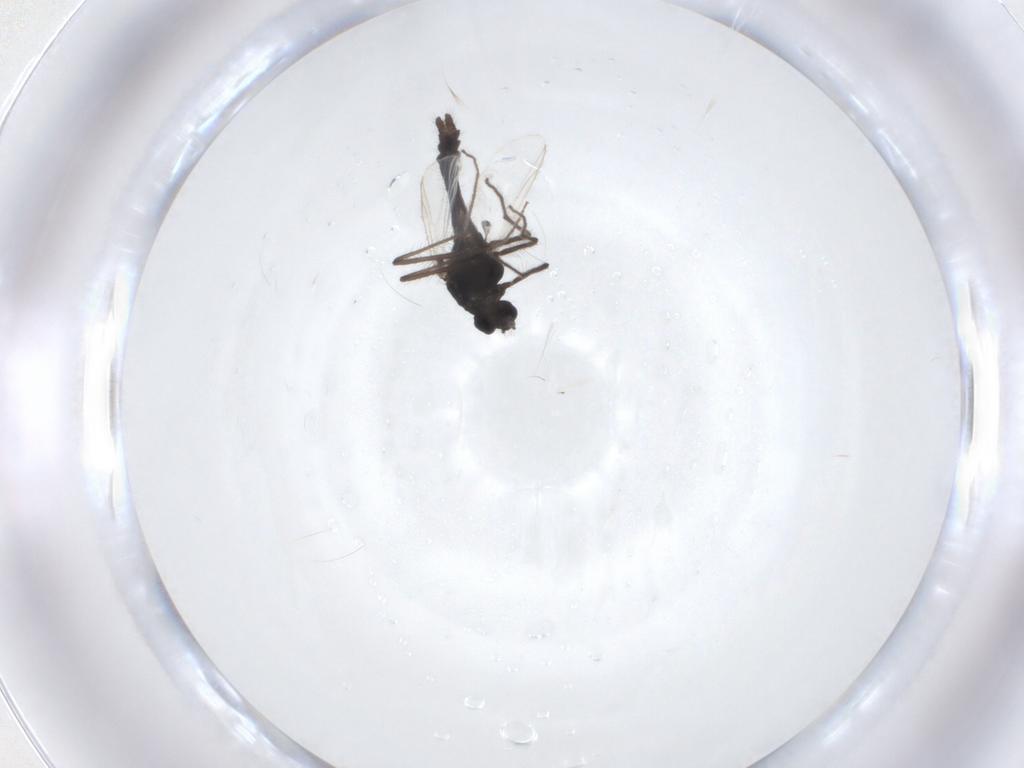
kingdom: Animalia
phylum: Arthropoda
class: Insecta
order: Diptera
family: Chironomidae
